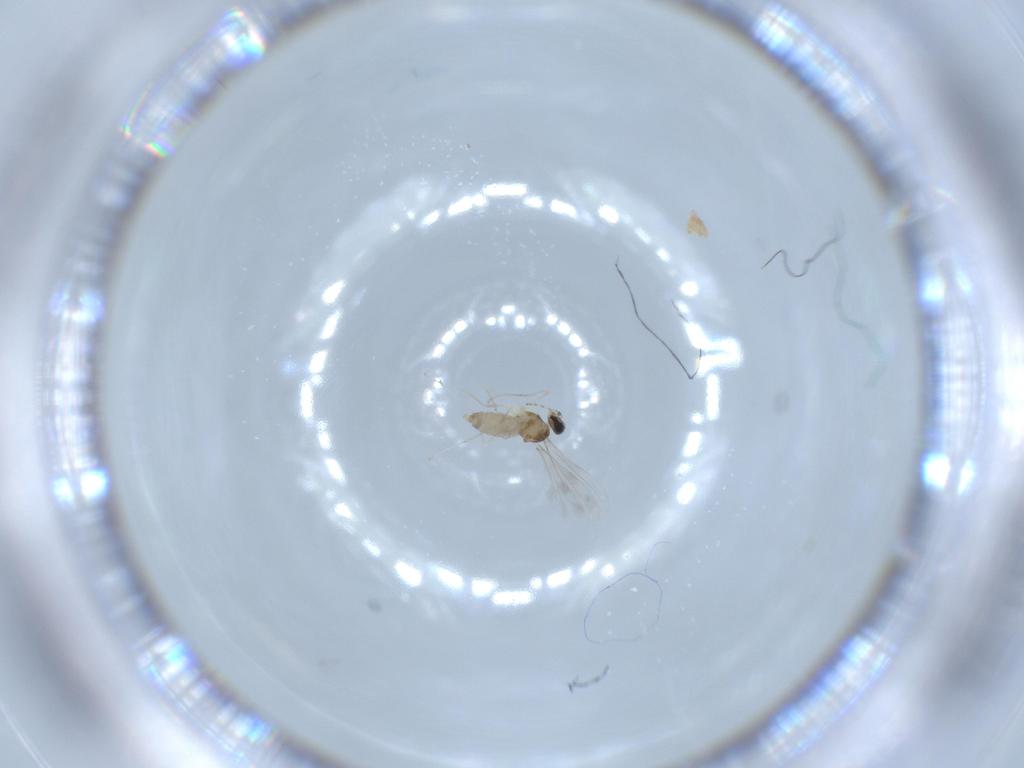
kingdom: Animalia
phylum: Arthropoda
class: Insecta
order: Diptera
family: Cecidomyiidae
